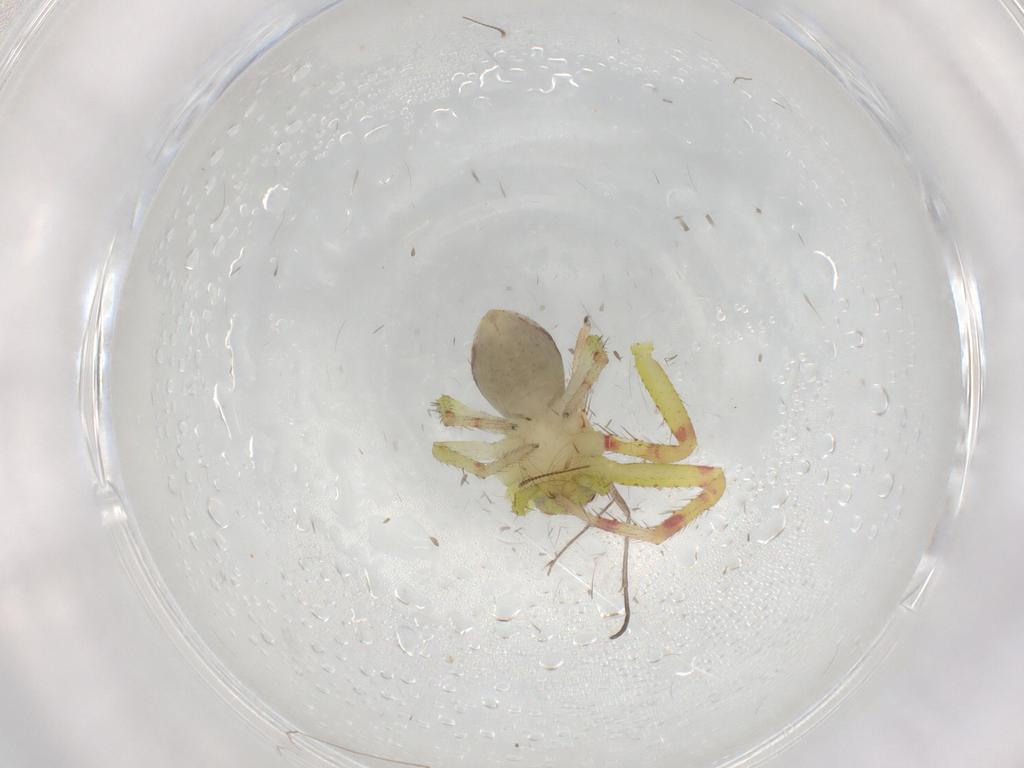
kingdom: Animalia
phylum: Arthropoda
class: Arachnida
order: Araneae
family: Thomisidae
